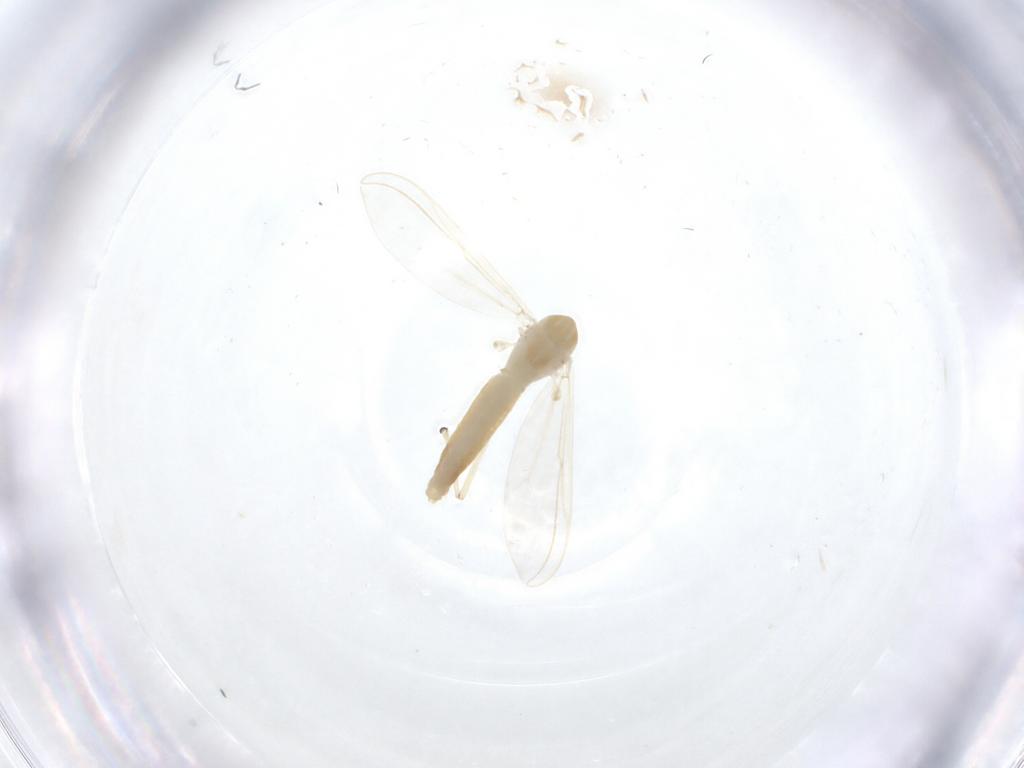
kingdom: Animalia
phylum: Arthropoda
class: Insecta
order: Diptera
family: Chironomidae
